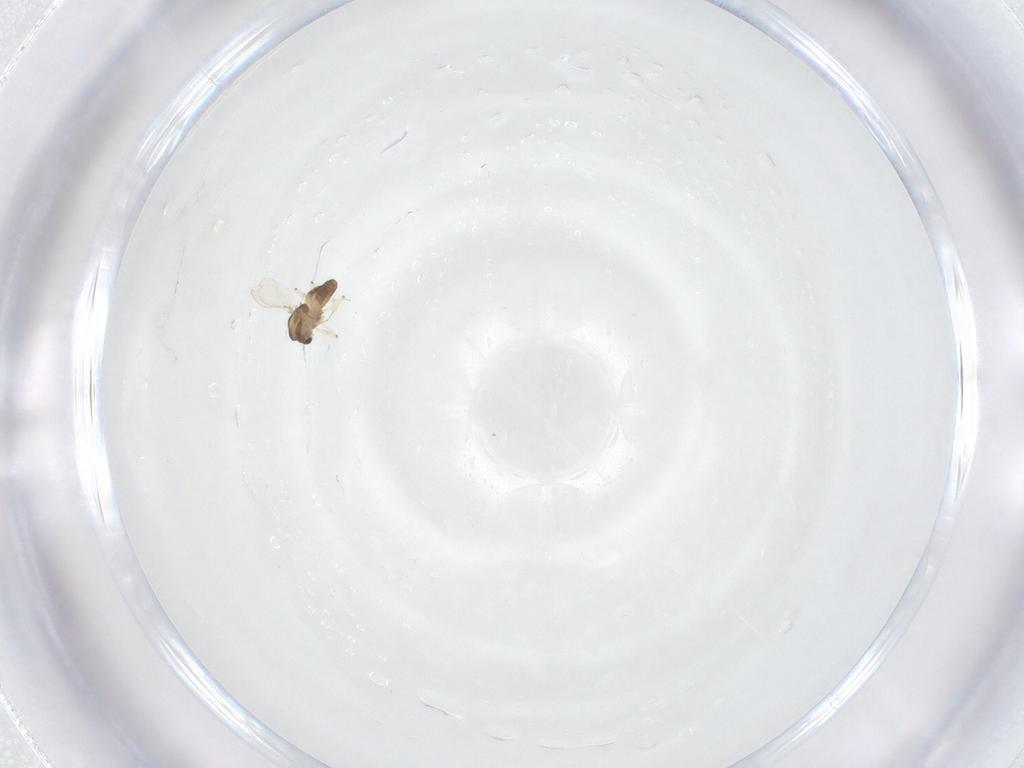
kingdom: Animalia
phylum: Arthropoda
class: Insecta
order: Diptera
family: Chironomidae
